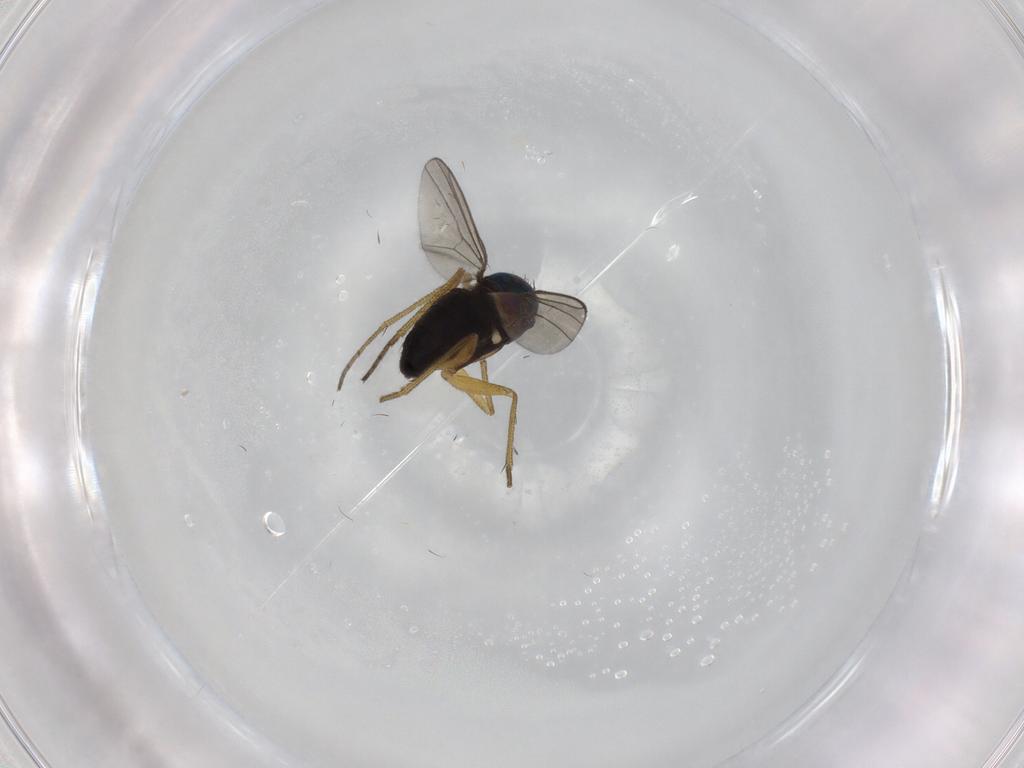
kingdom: Animalia
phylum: Arthropoda
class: Insecta
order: Diptera
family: Dolichopodidae
